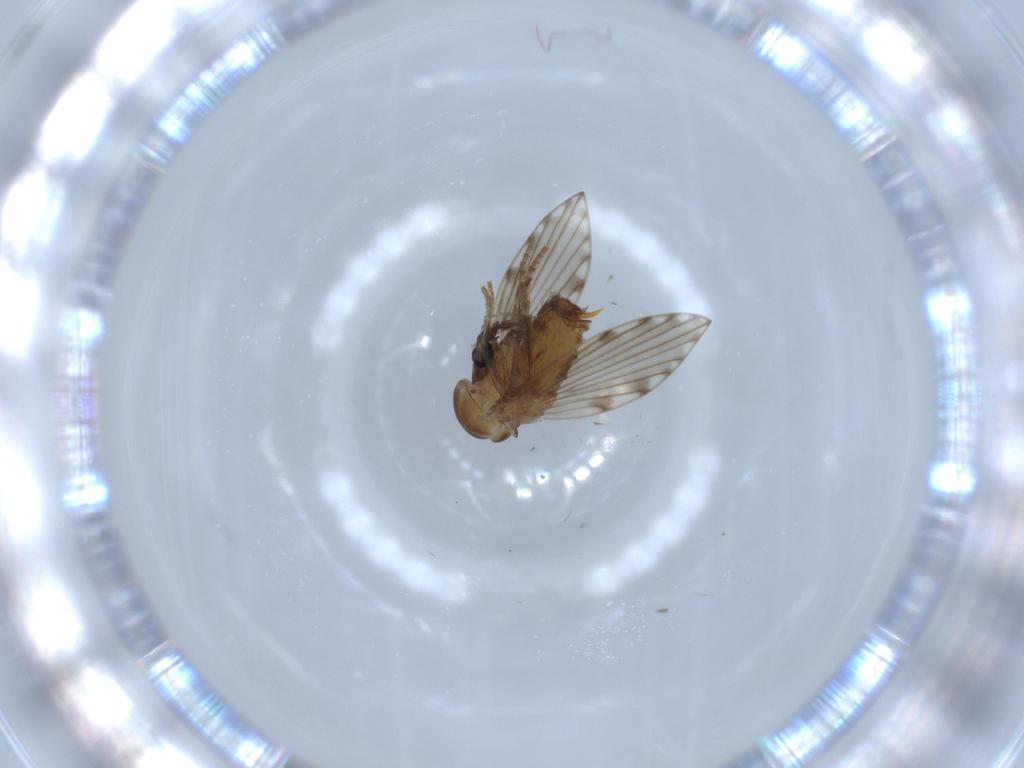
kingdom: Animalia
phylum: Arthropoda
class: Insecta
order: Diptera
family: Psychodidae
